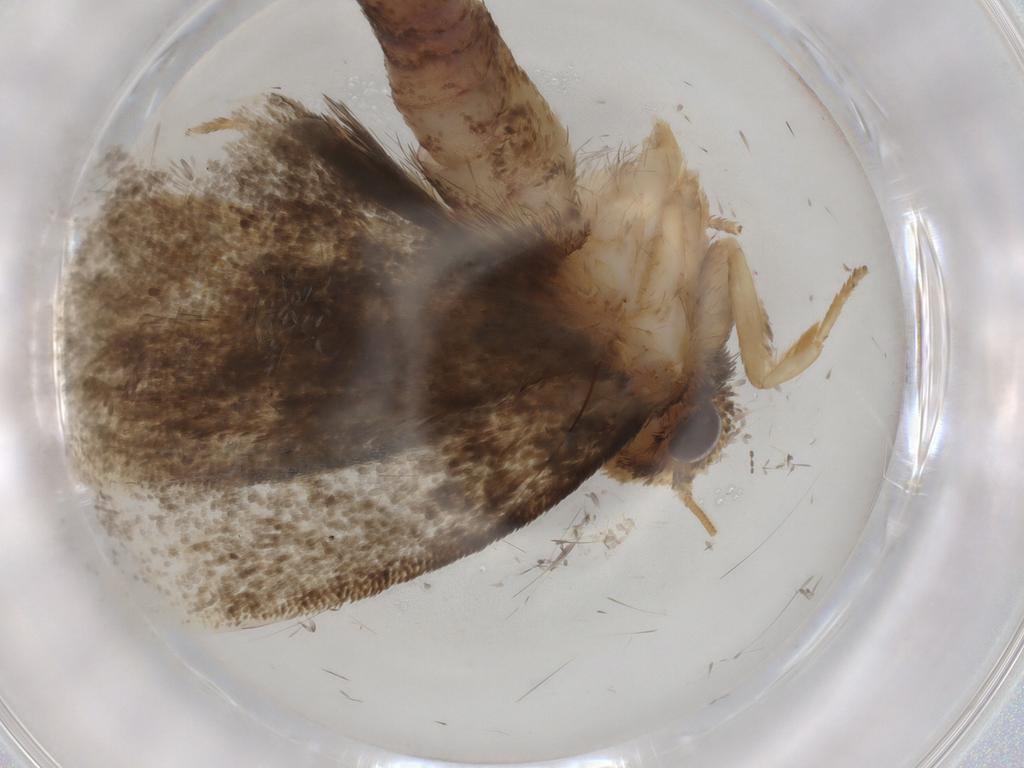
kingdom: Animalia
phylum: Arthropoda
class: Insecta
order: Lepidoptera
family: Tineidae
